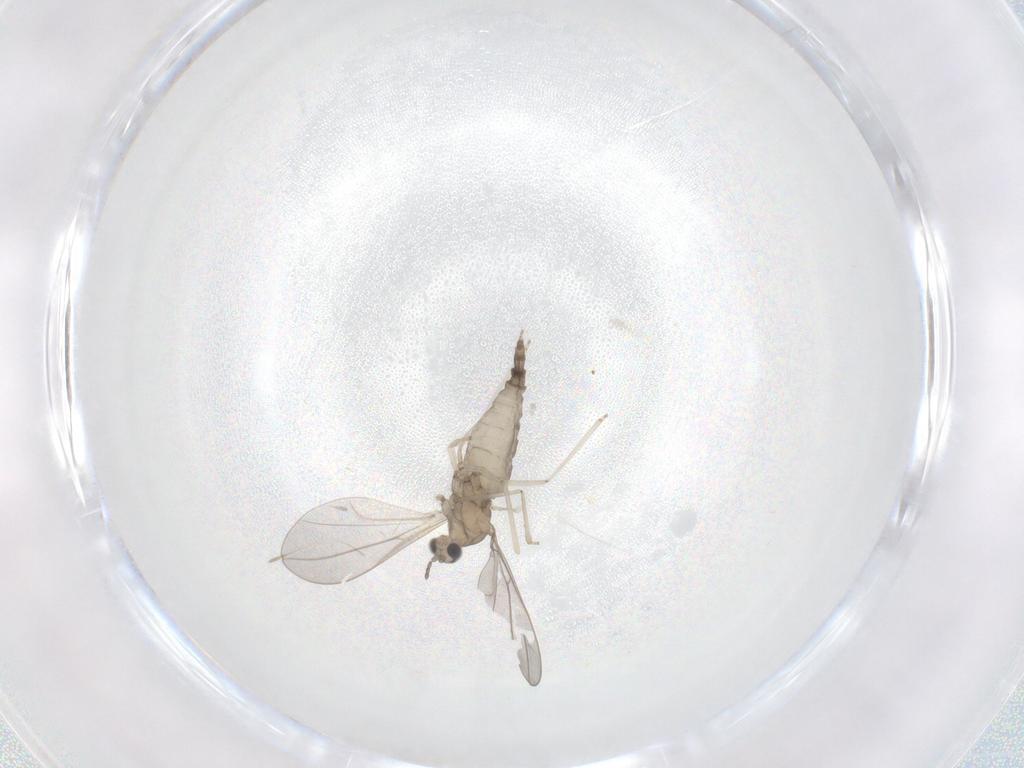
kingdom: Animalia
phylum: Arthropoda
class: Insecta
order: Diptera
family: Cecidomyiidae
